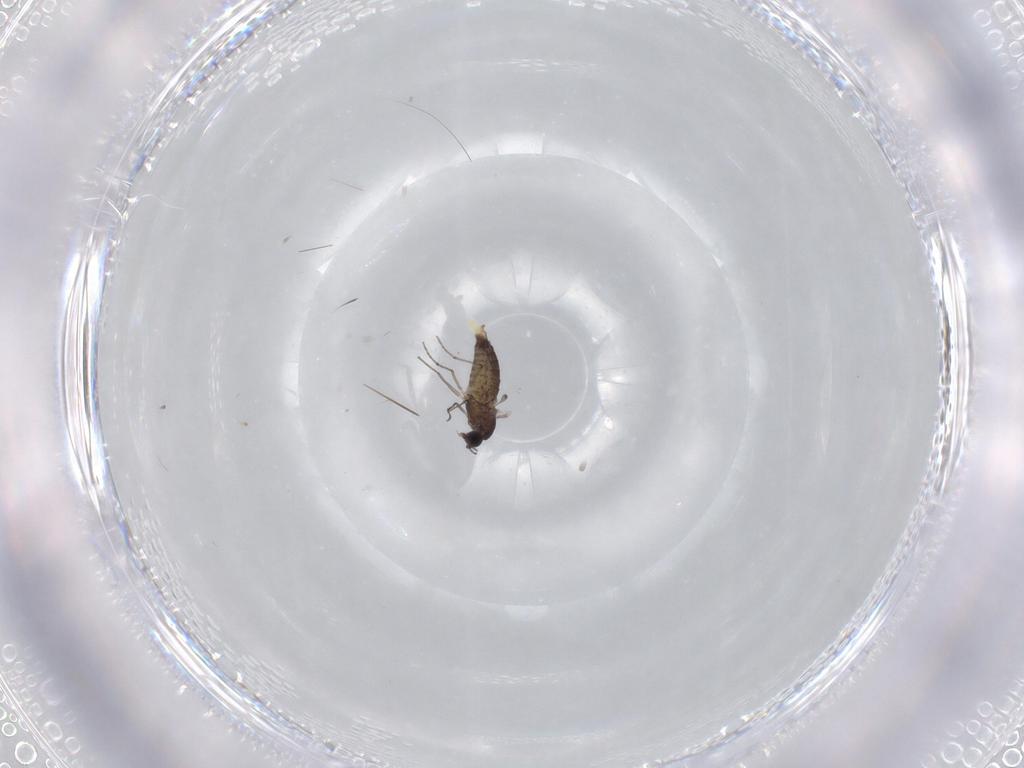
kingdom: Animalia
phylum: Arthropoda
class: Insecta
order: Diptera
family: Chironomidae
